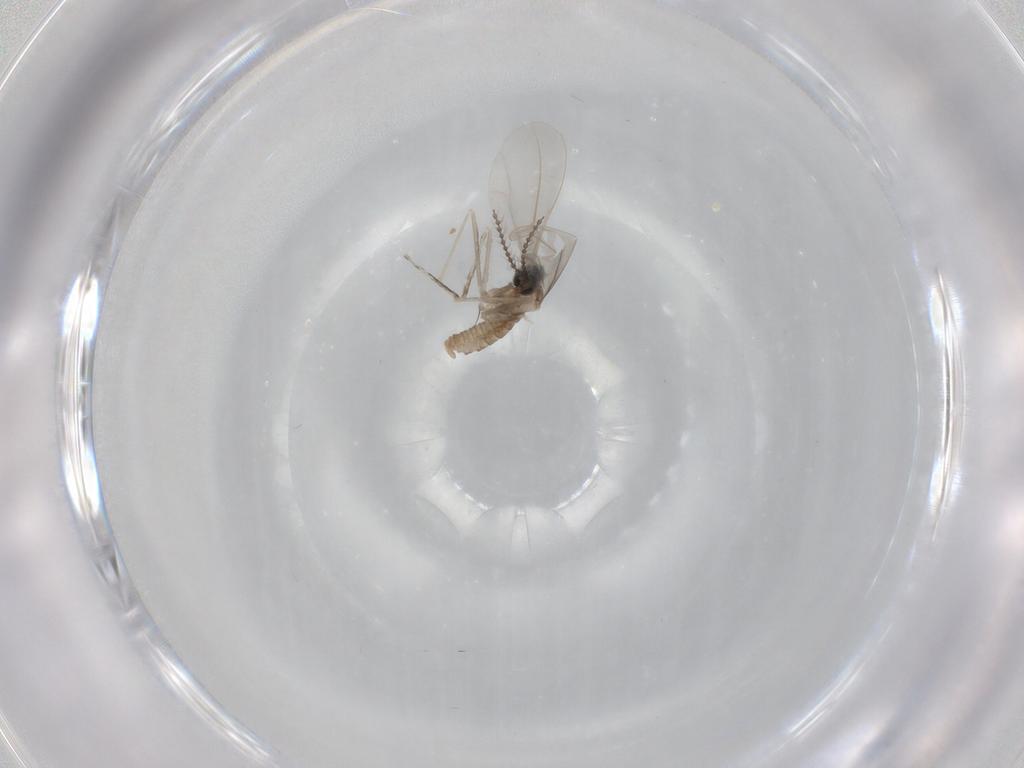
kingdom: Animalia
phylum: Arthropoda
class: Insecta
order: Diptera
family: Cecidomyiidae
